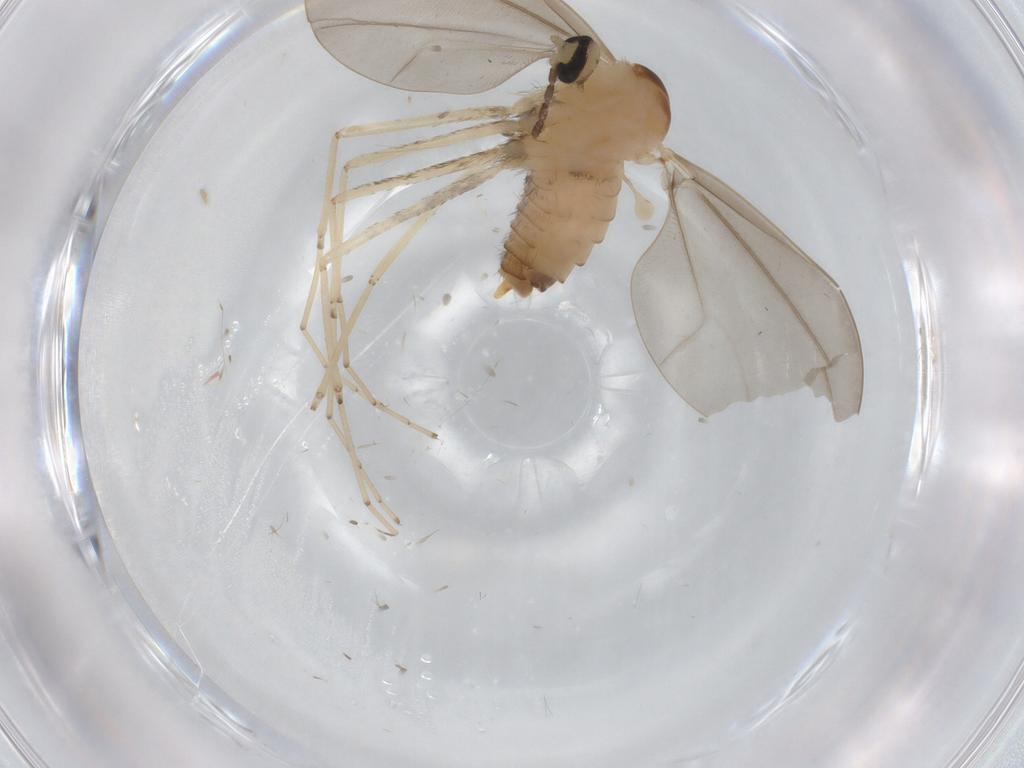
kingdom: Animalia
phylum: Arthropoda
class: Insecta
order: Diptera
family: Cecidomyiidae
